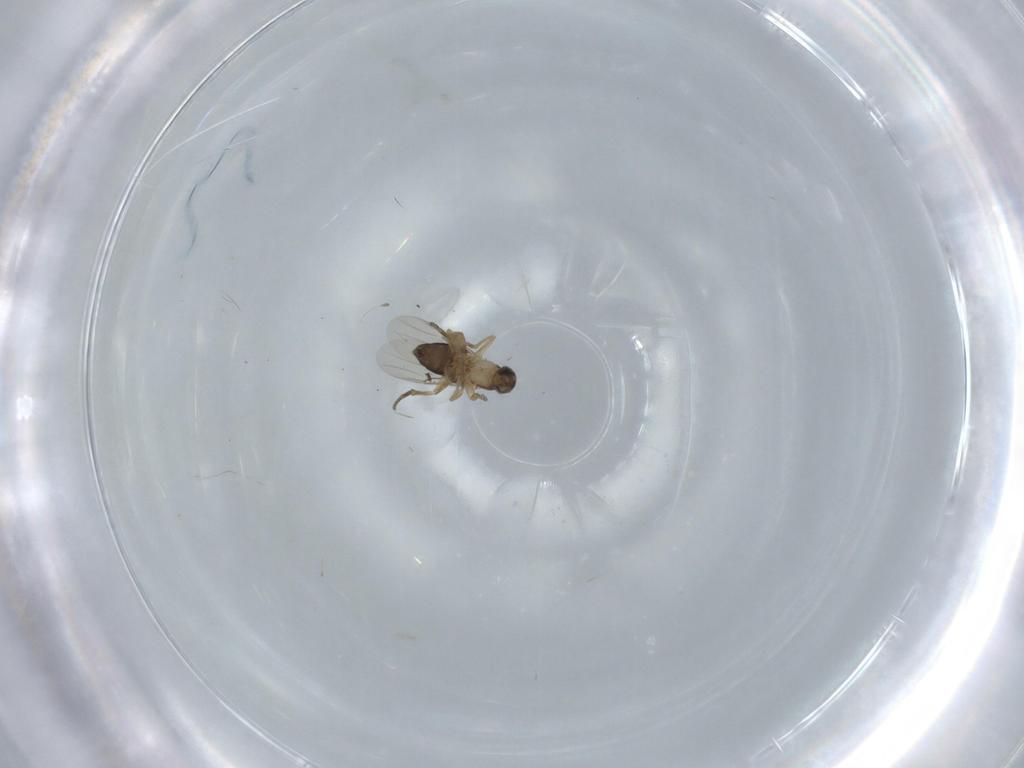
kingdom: Animalia
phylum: Arthropoda
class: Insecta
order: Diptera
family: Phoridae
